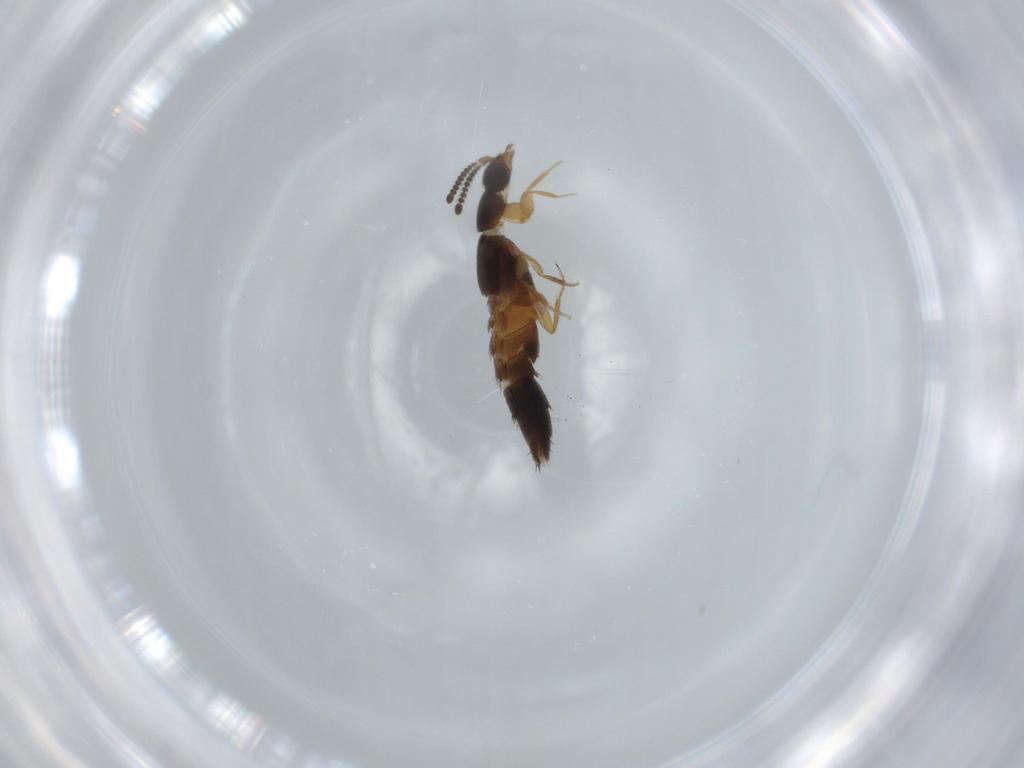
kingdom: Animalia
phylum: Arthropoda
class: Insecta
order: Coleoptera
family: Staphylinidae
